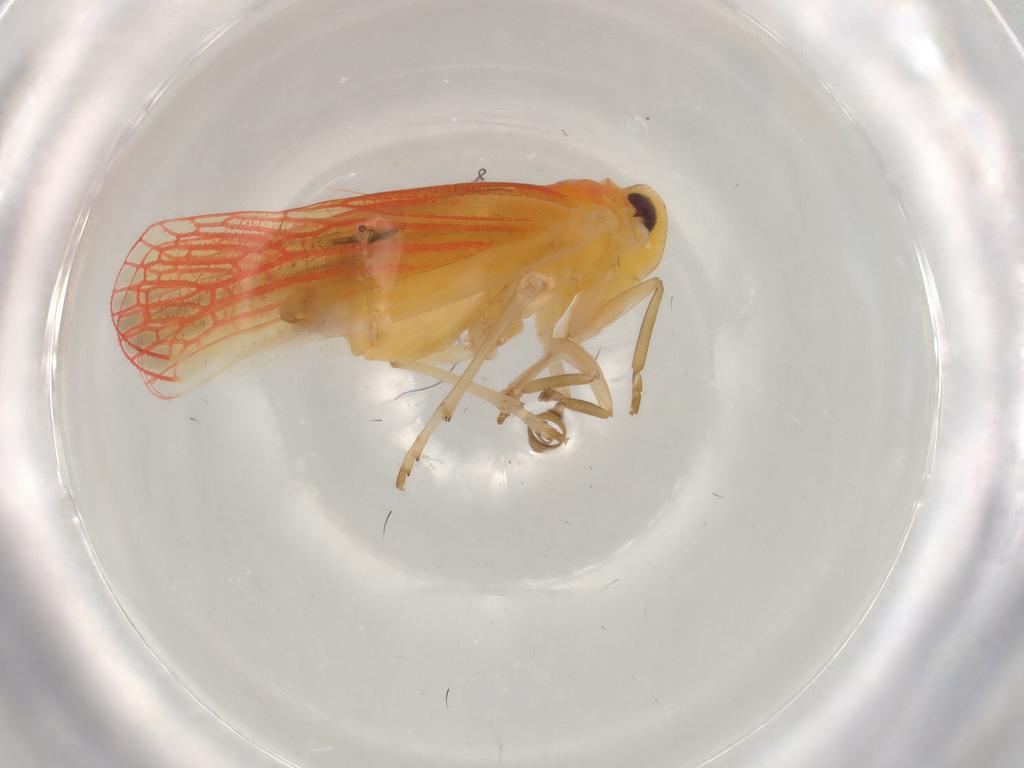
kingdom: Animalia
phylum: Arthropoda
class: Insecta
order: Hemiptera
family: Derbidae
